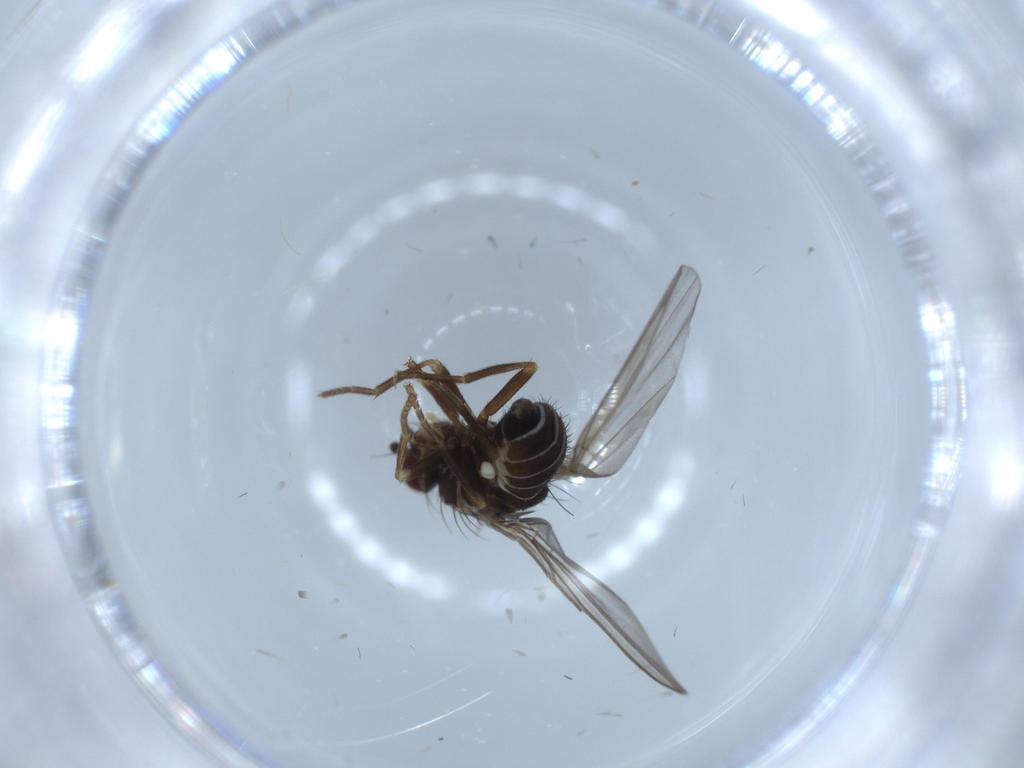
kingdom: Animalia
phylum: Arthropoda
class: Insecta
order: Diptera
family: Agromyzidae
